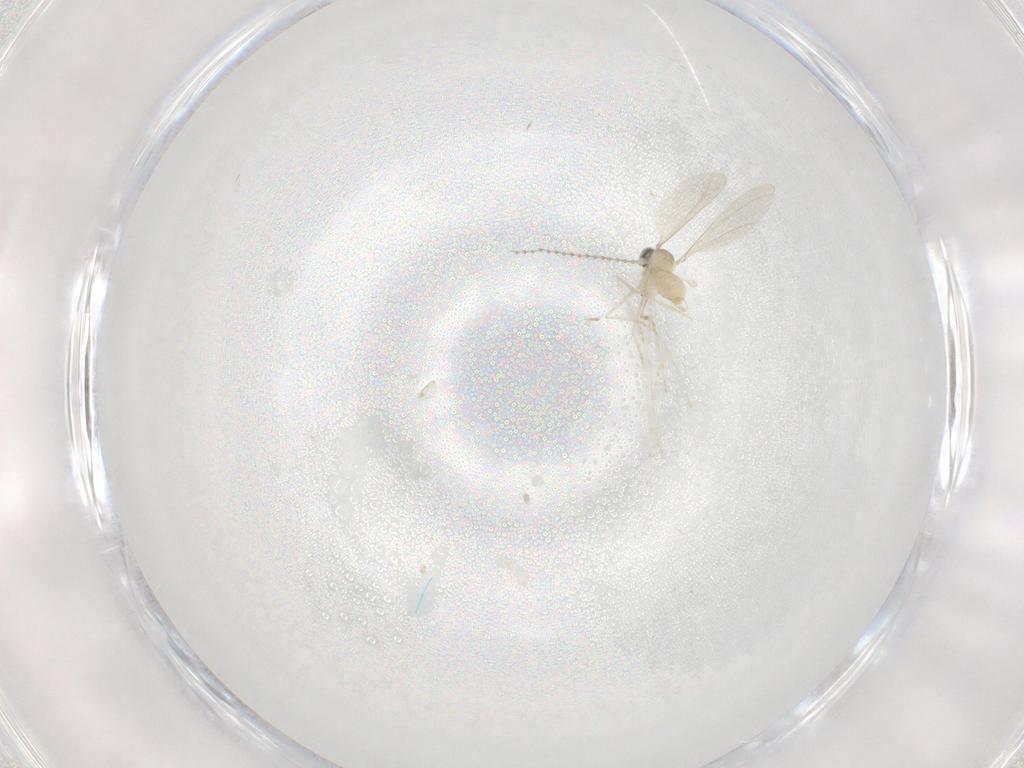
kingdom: Animalia
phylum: Arthropoda
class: Insecta
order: Diptera
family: Cecidomyiidae
